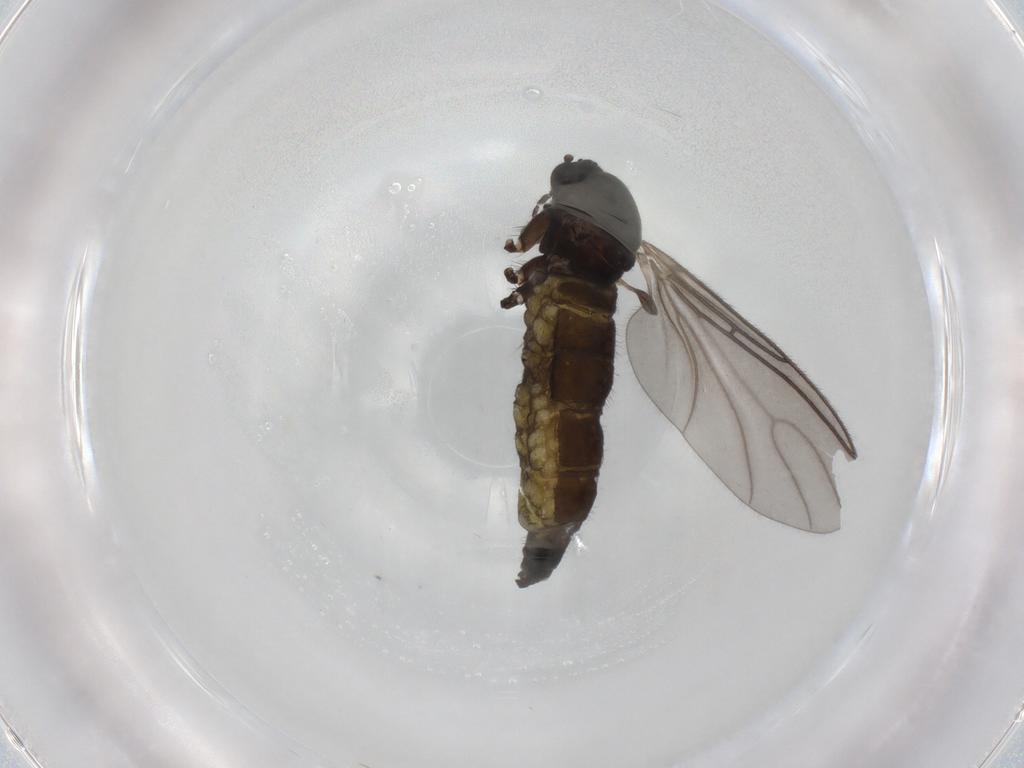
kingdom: Animalia
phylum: Arthropoda
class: Insecta
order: Diptera
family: Sciaridae
